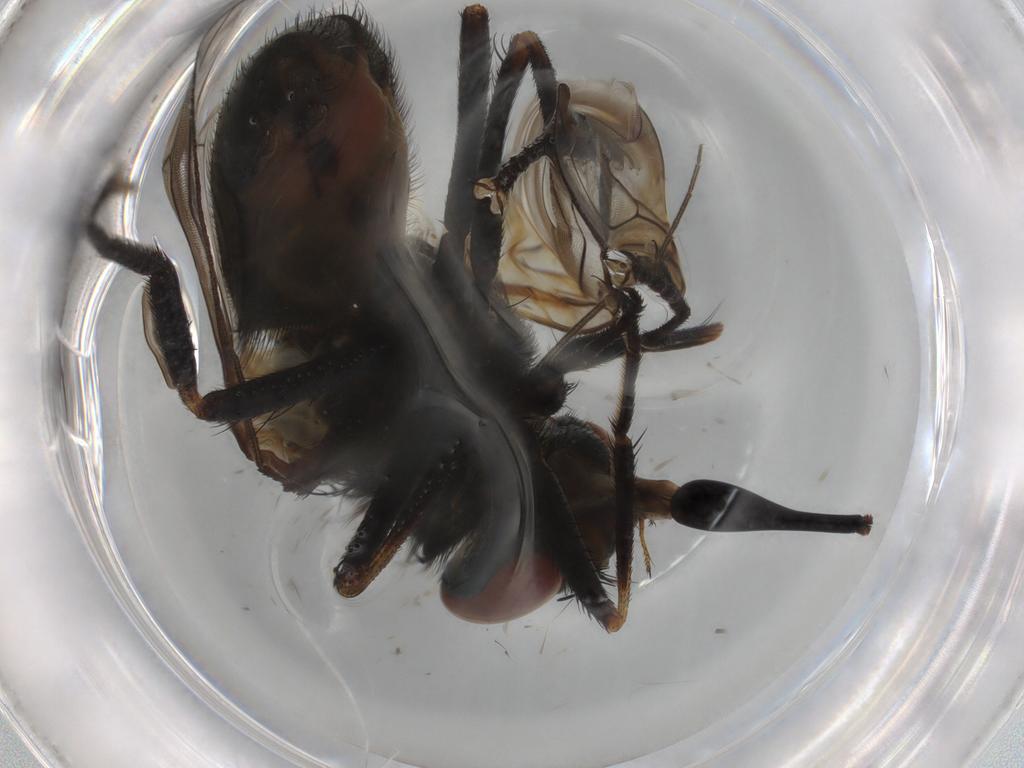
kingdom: Animalia
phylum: Arthropoda
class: Insecta
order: Diptera
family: Muscidae
